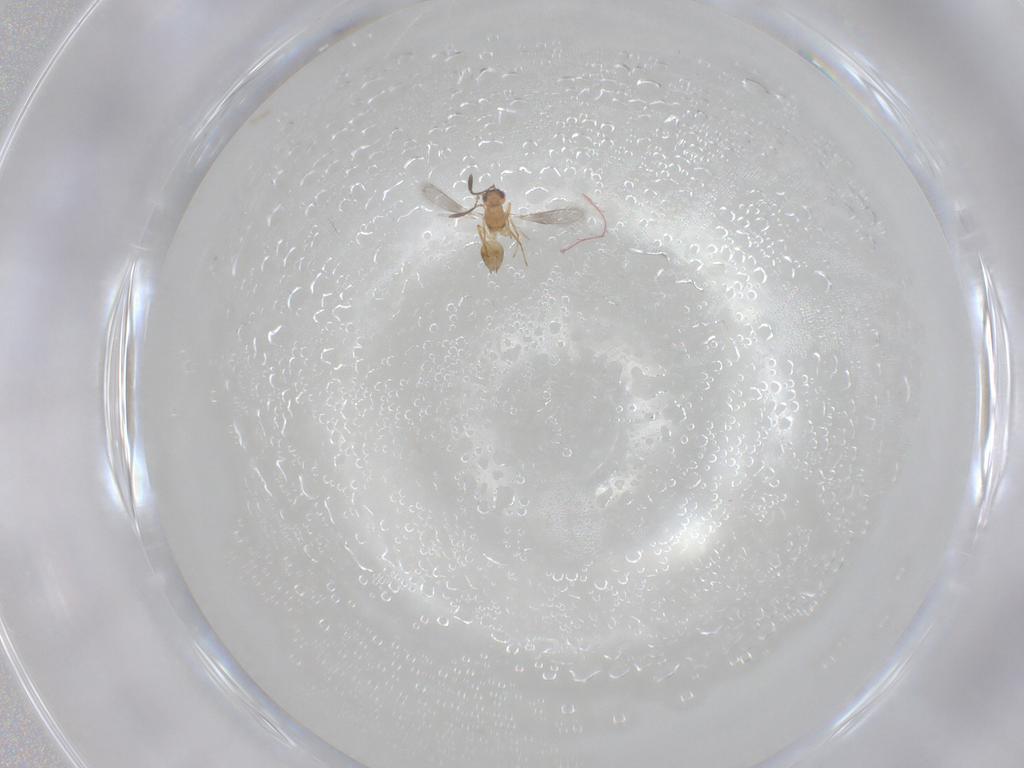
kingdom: Animalia
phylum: Arthropoda
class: Insecta
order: Hymenoptera
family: Mymaridae
